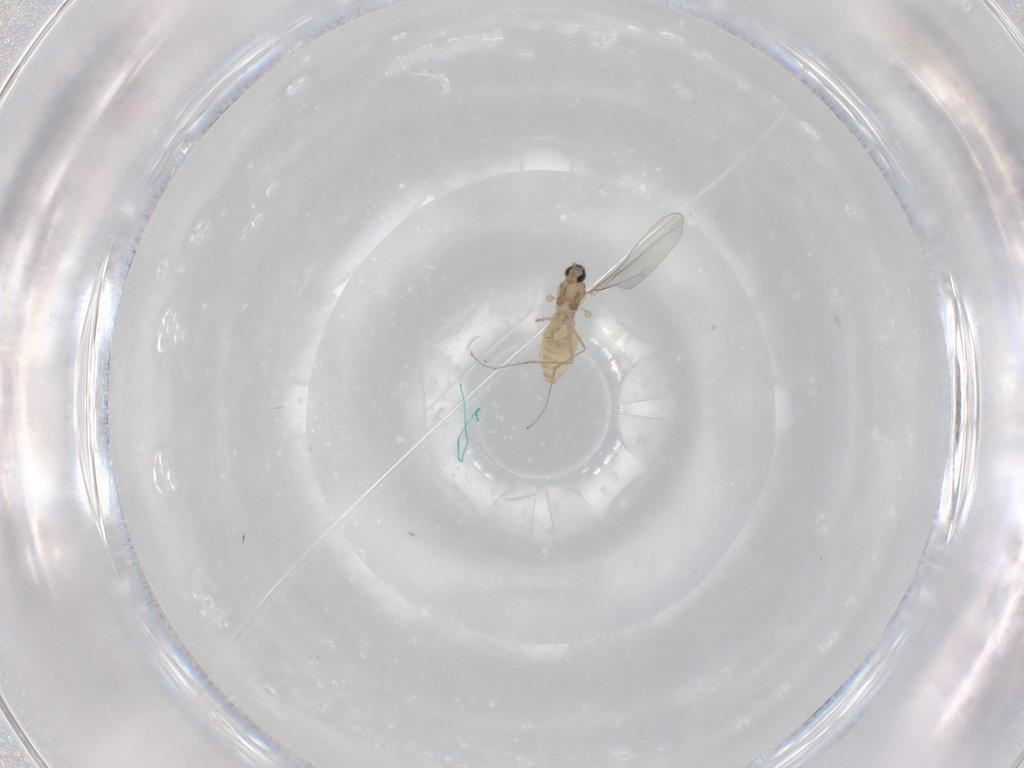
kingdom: Animalia
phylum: Arthropoda
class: Insecta
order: Diptera
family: Cecidomyiidae
